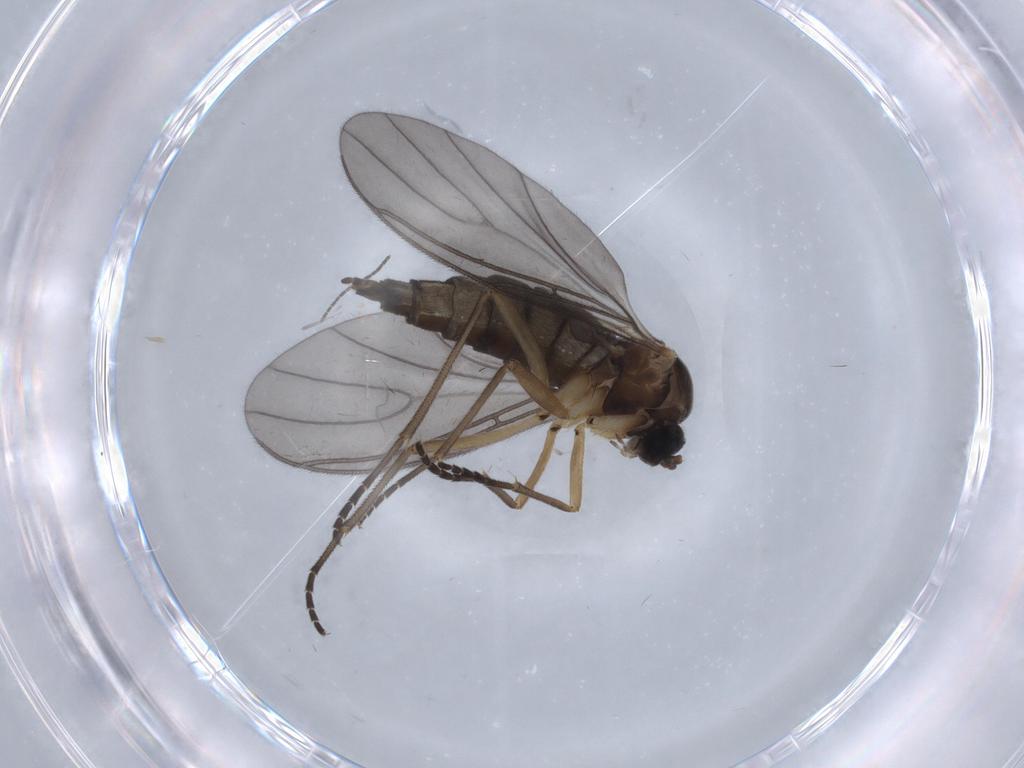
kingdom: Animalia
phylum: Arthropoda
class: Insecta
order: Diptera
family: Sciaridae
